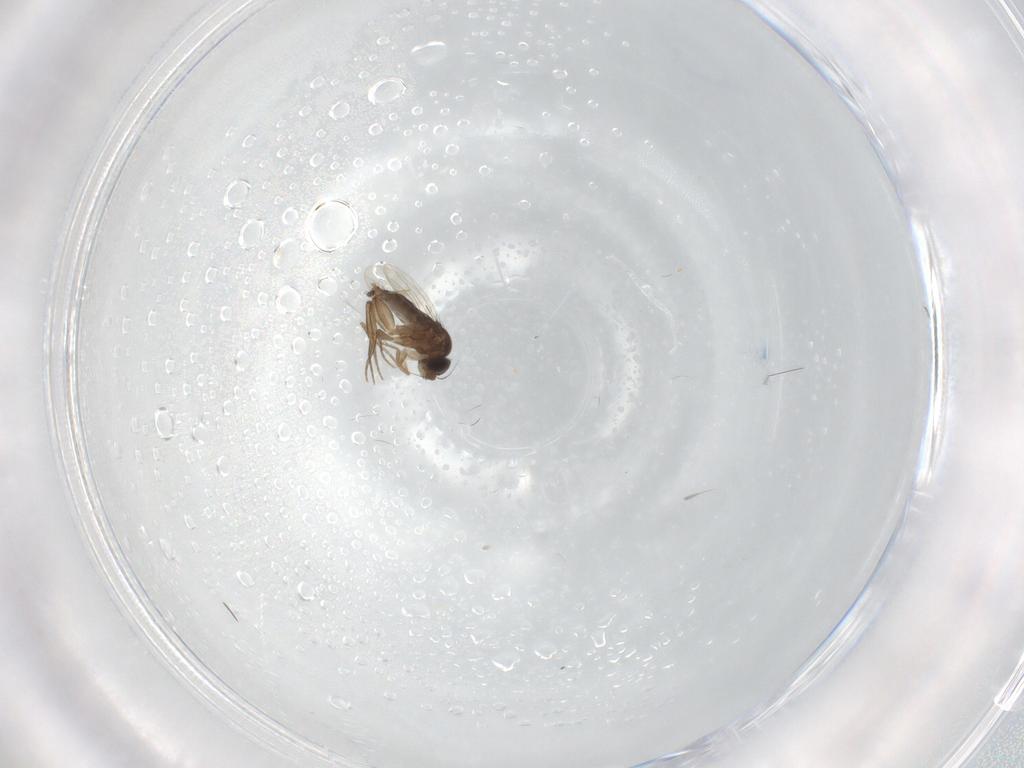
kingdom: Animalia
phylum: Arthropoda
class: Insecta
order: Diptera
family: Phoridae
